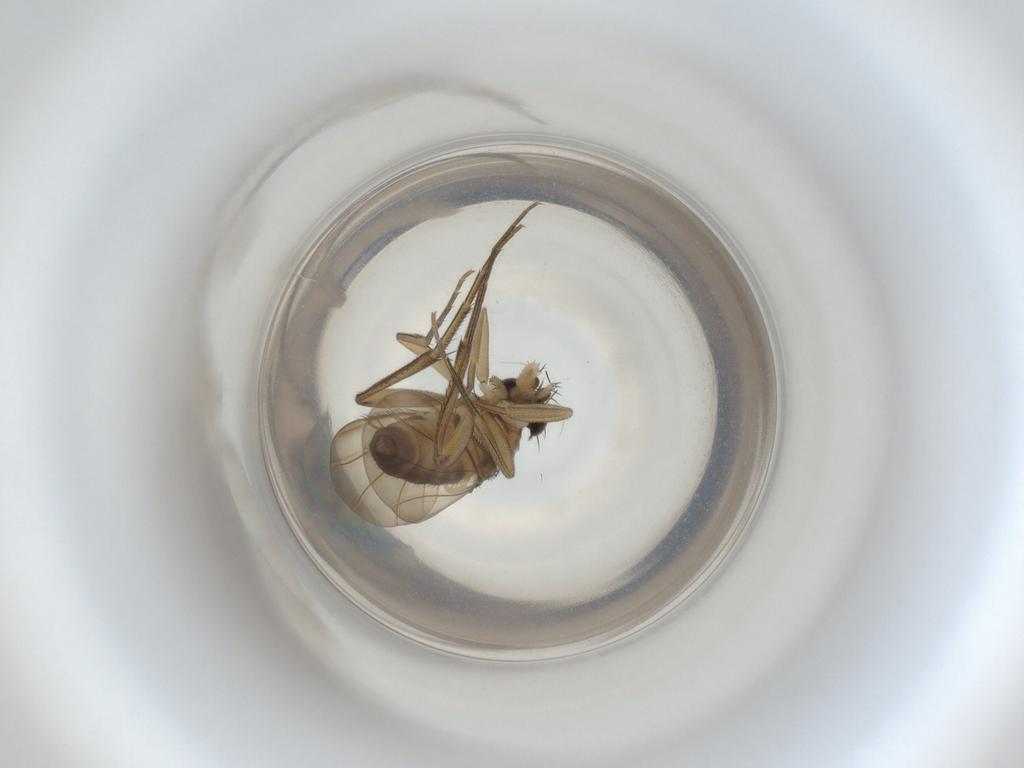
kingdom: Animalia
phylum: Arthropoda
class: Insecta
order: Diptera
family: Phoridae
